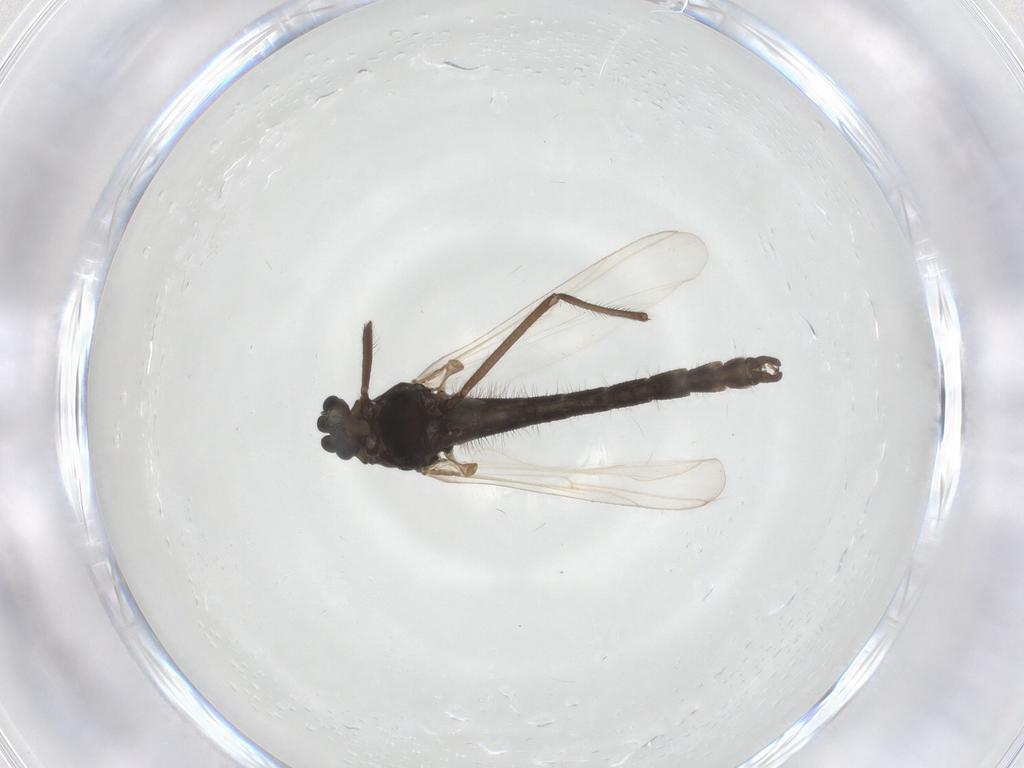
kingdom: Animalia
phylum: Arthropoda
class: Insecta
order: Diptera
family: Chironomidae
